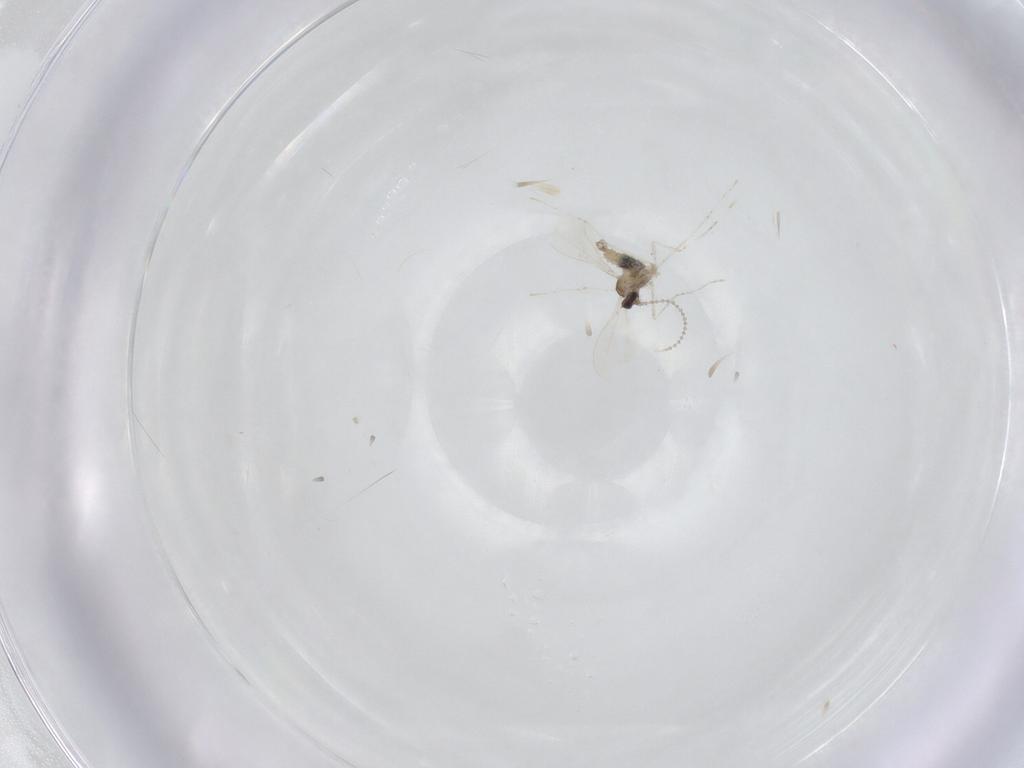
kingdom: Animalia
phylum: Arthropoda
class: Insecta
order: Diptera
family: Cecidomyiidae
